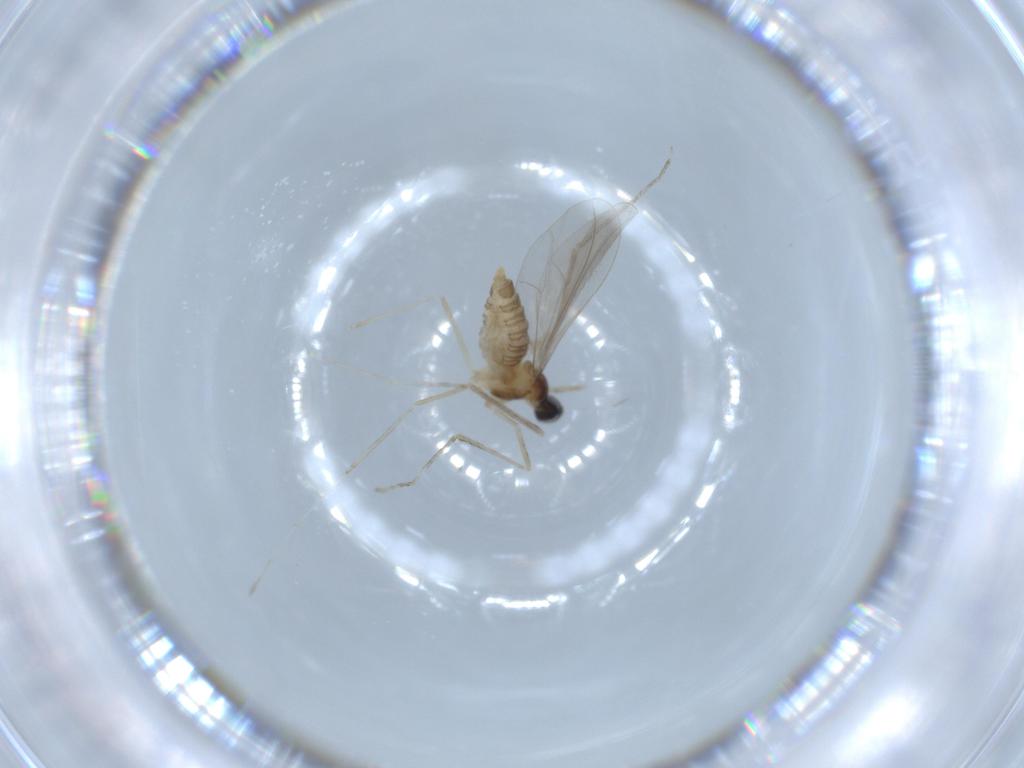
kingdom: Animalia
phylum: Arthropoda
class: Insecta
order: Diptera
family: Sciaridae
